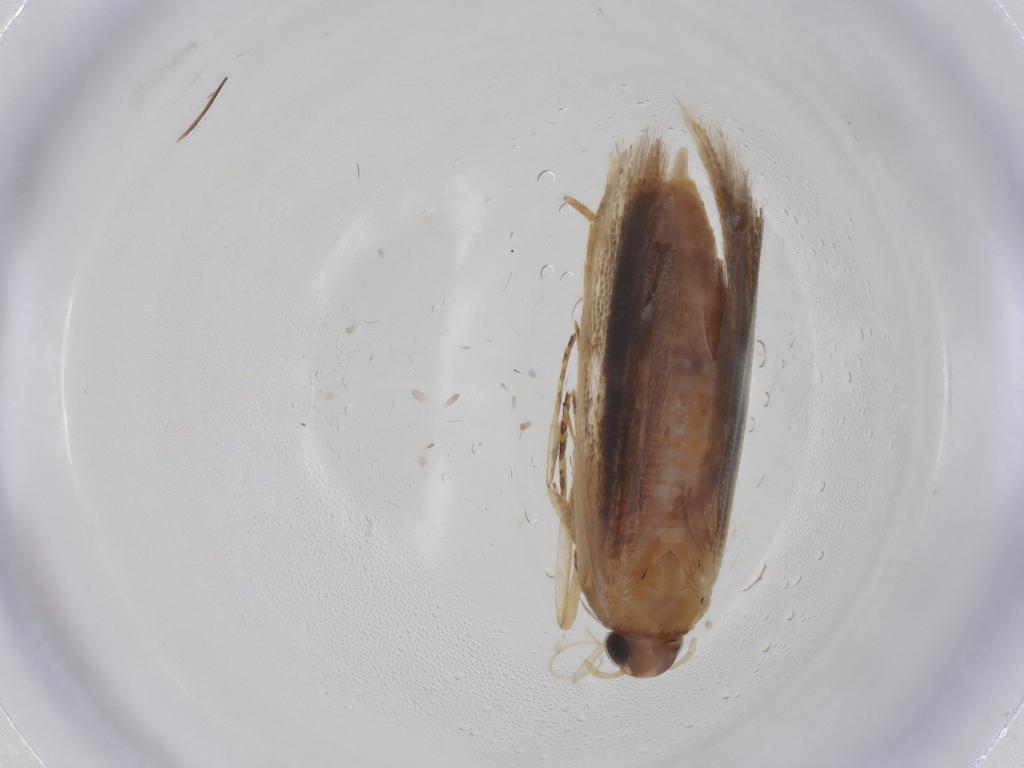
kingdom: Animalia
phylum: Arthropoda
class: Insecta
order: Lepidoptera
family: Gelechiidae
